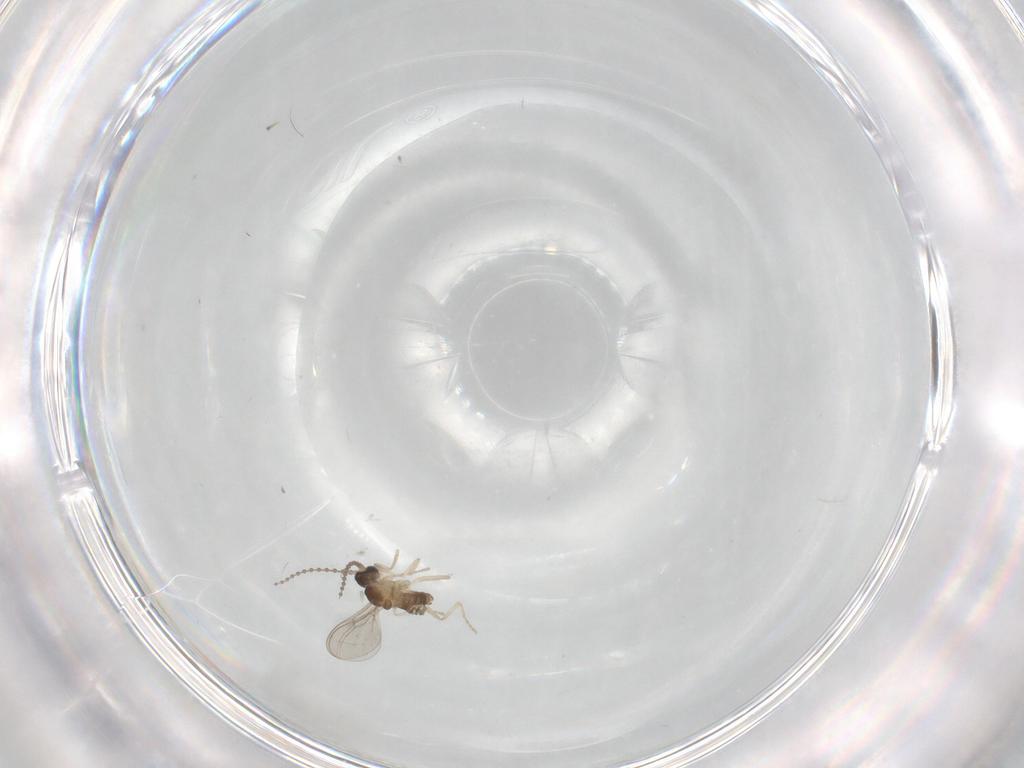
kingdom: Animalia
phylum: Arthropoda
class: Insecta
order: Diptera
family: Cecidomyiidae
